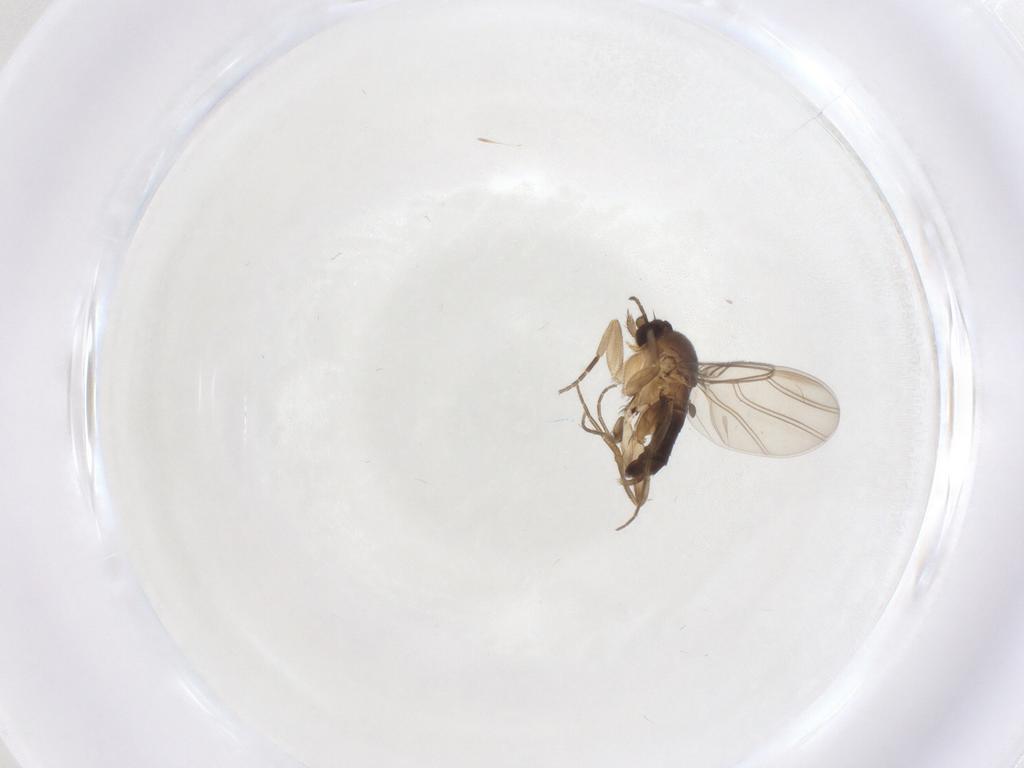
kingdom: Animalia
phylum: Arthropoda
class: Insecta
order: Diptera
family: Phoridae
